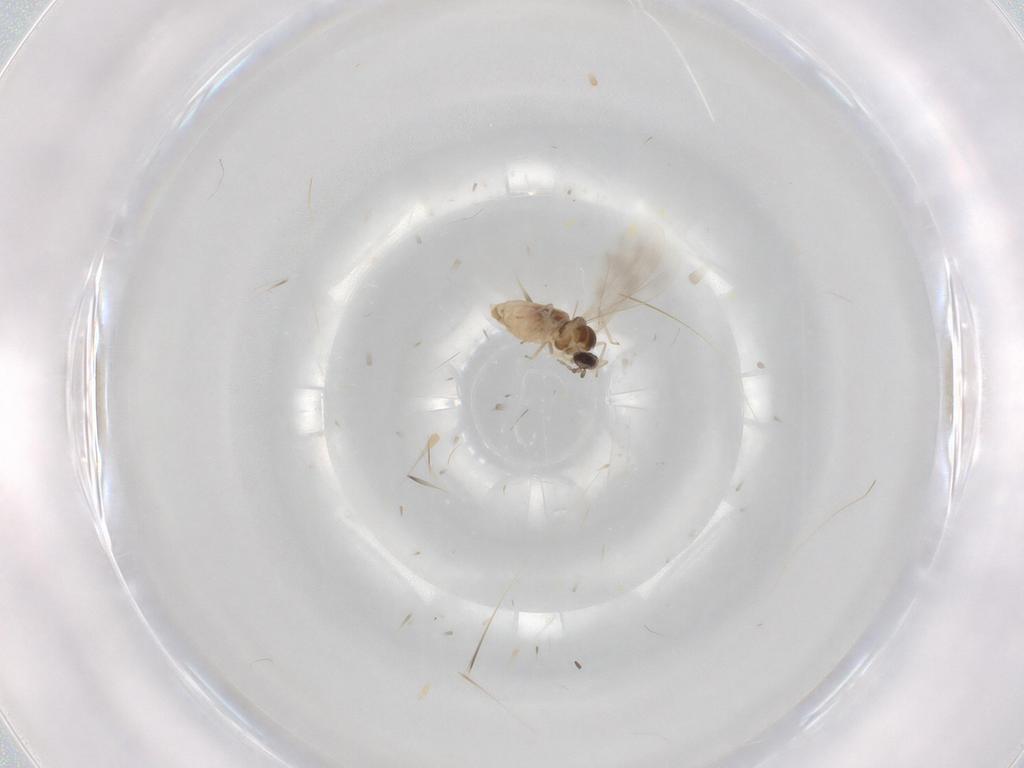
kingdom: Animalia
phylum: Arthropoda
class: Insecta
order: Diptera
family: Cecidomyiidae
